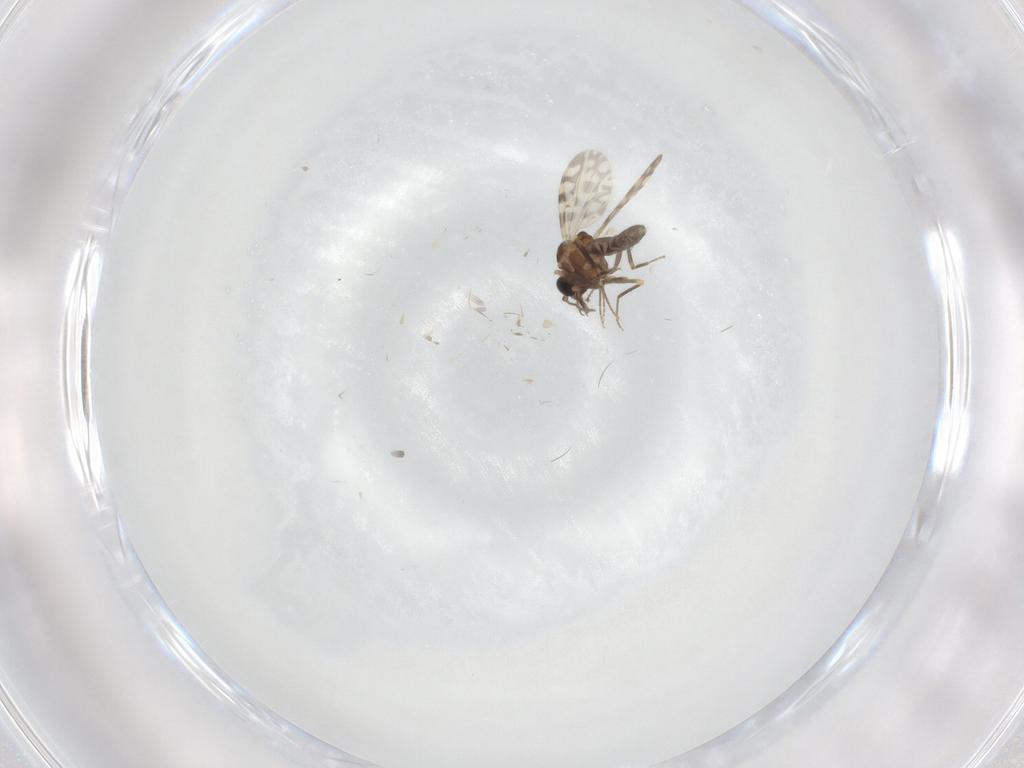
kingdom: Animalia
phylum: Arthropoda
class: Insecta
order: Diptera
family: Ceratopogonidae
